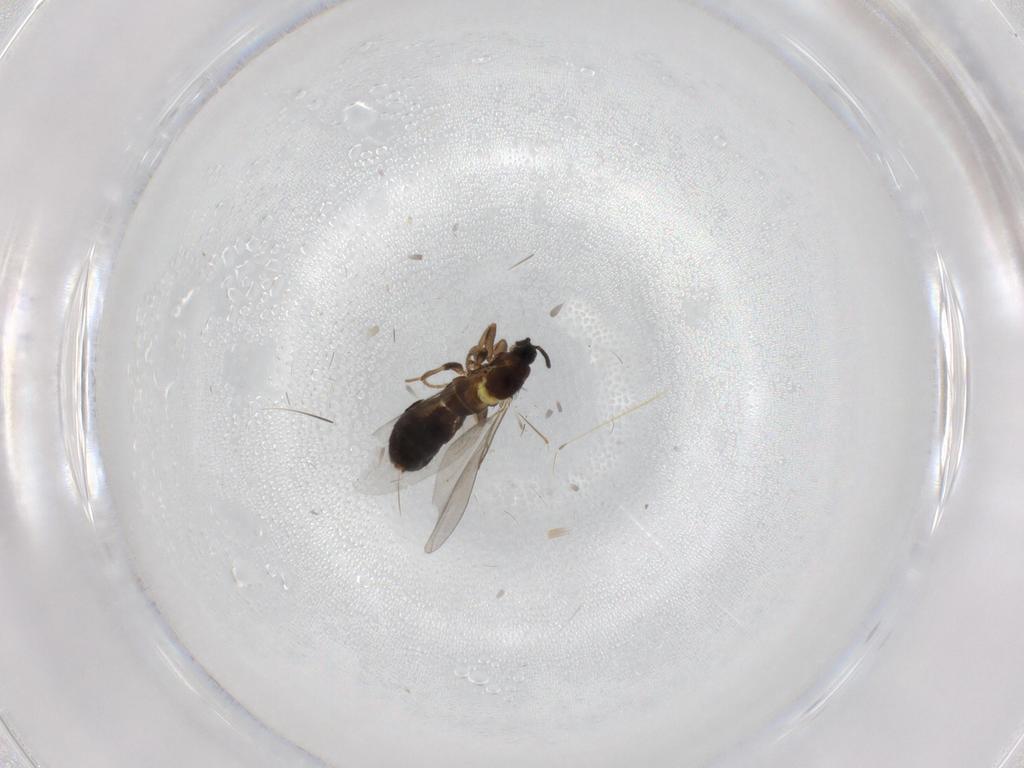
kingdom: Animalia
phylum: Arthropoda
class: Insecta
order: Diptera
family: Scatopsidae
